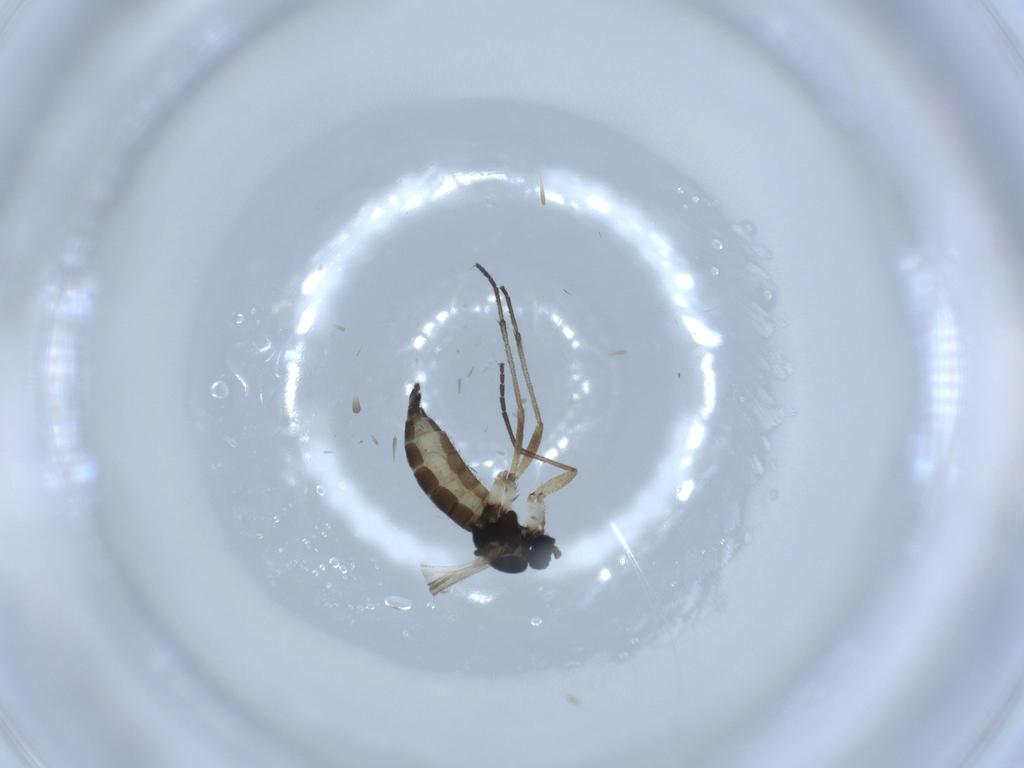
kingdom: Animalia
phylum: Arthropoda
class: Insecta
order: Diptera
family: Sciaridae
